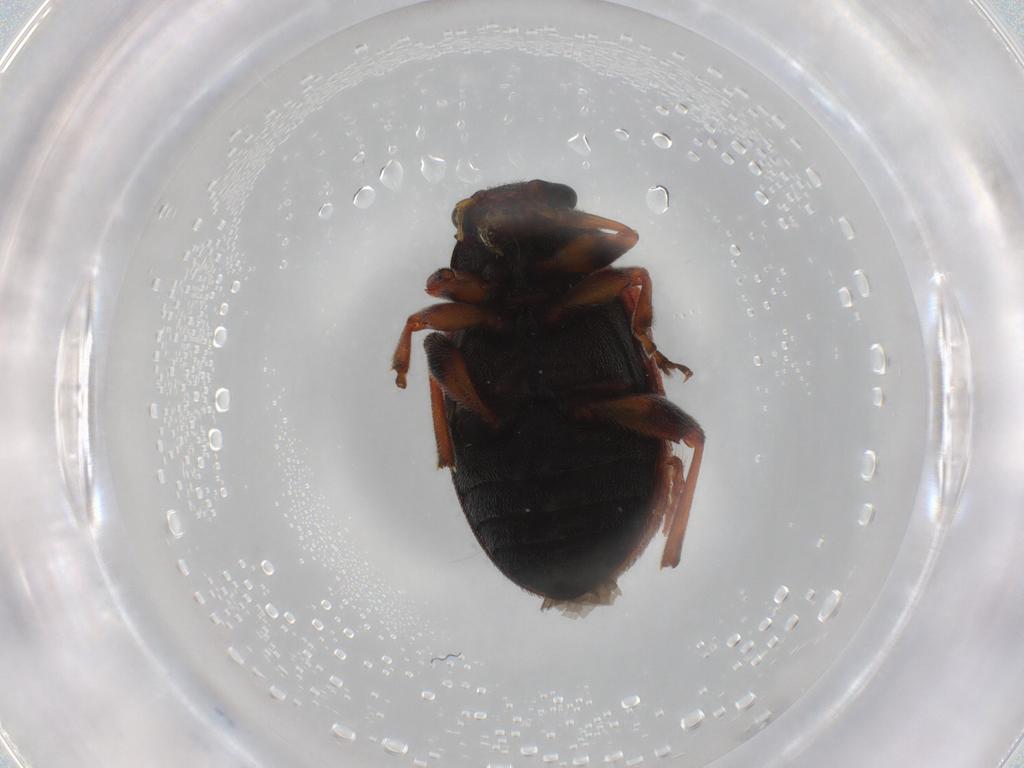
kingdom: Animalia
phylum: Arthropoda
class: Insecta
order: Coleoptera
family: Chrysomelidae
